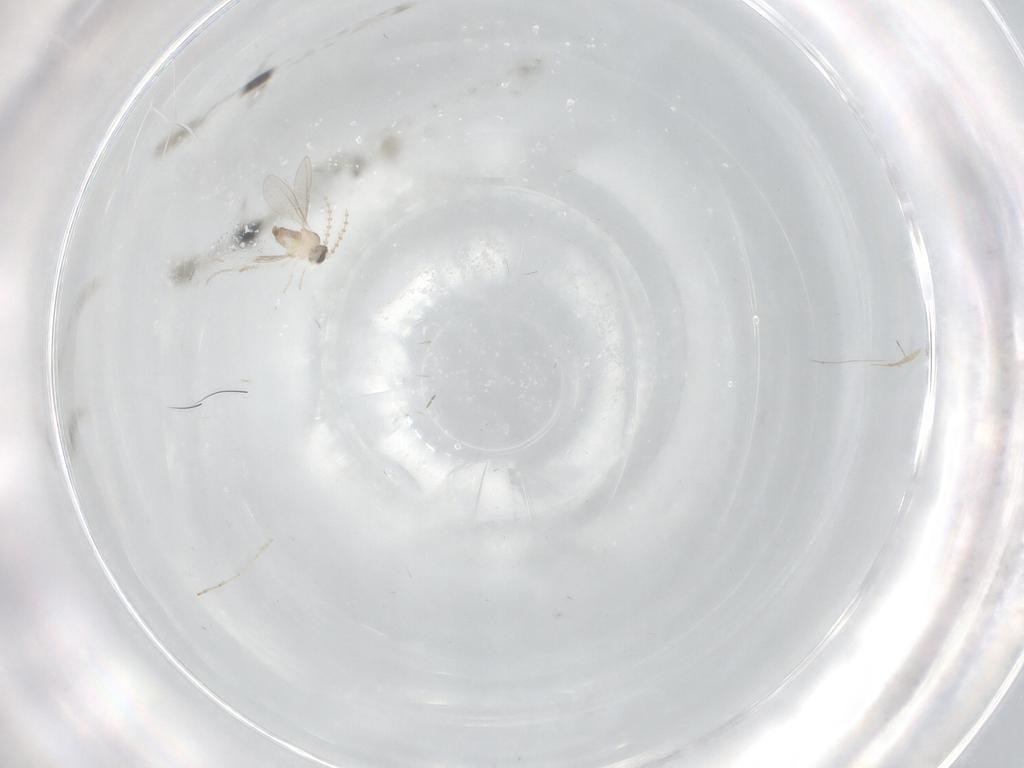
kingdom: Animalia
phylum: Arthropoda
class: Insecta
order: Diptera
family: Cecidomyiidae
